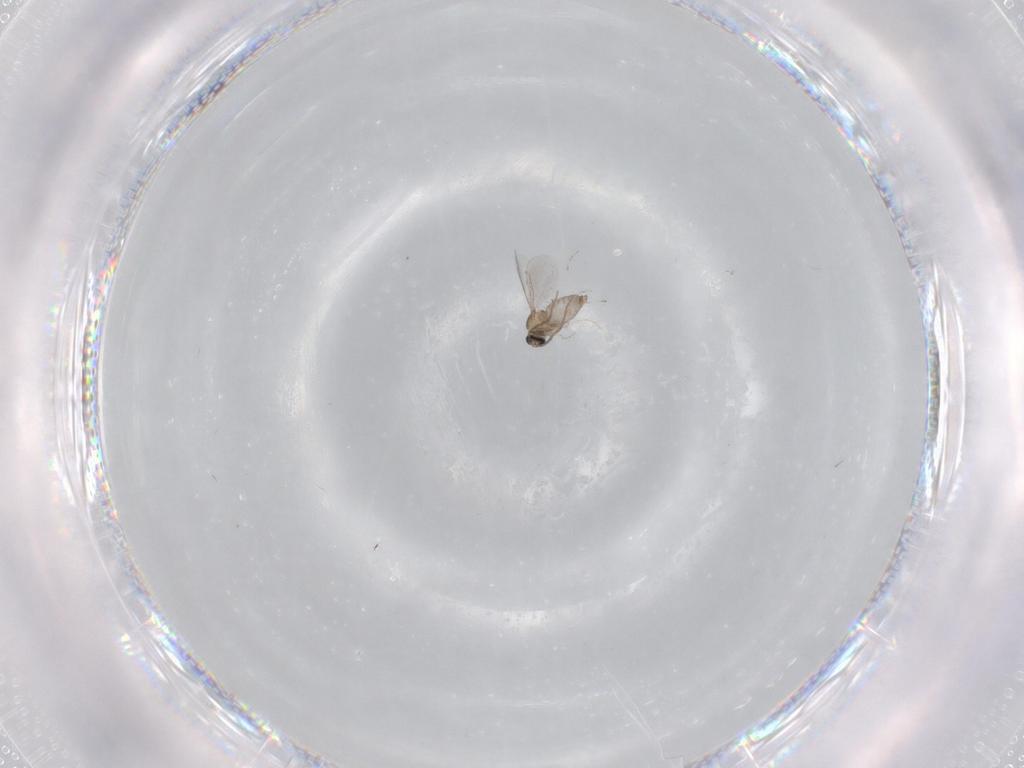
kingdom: Animalia
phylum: Arthropoda
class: Insecta
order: Diptera
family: Cecidomyiidae
